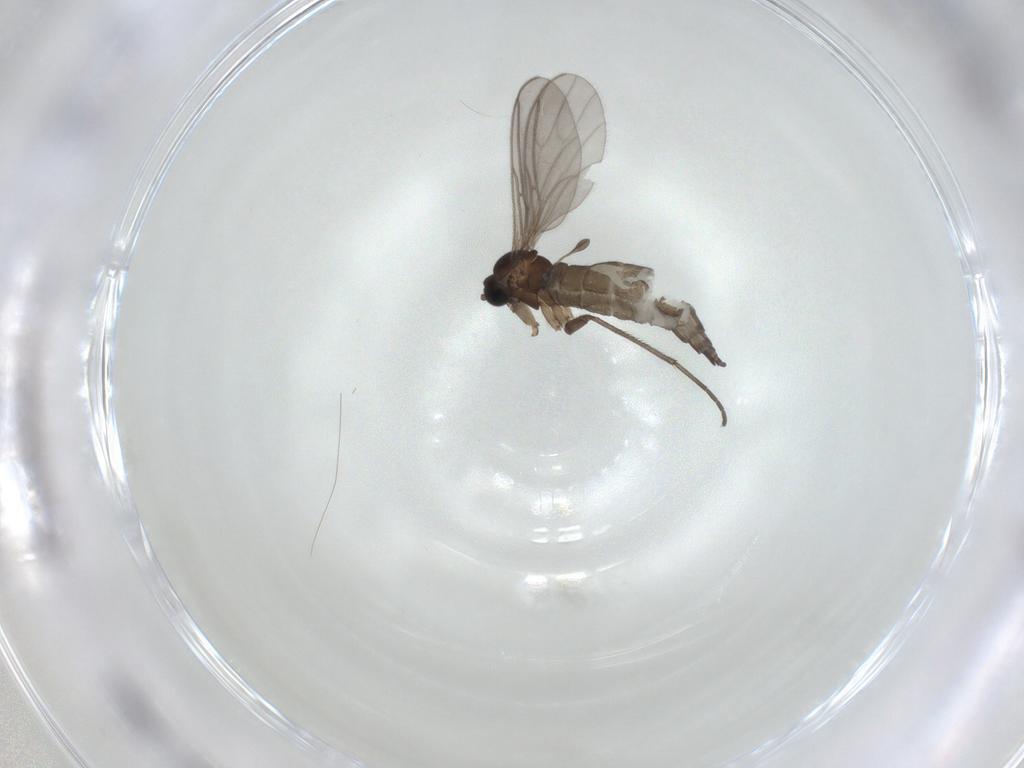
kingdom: Animalia
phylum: Arthropoda
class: Insecta
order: Diptera
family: Sciaridae
